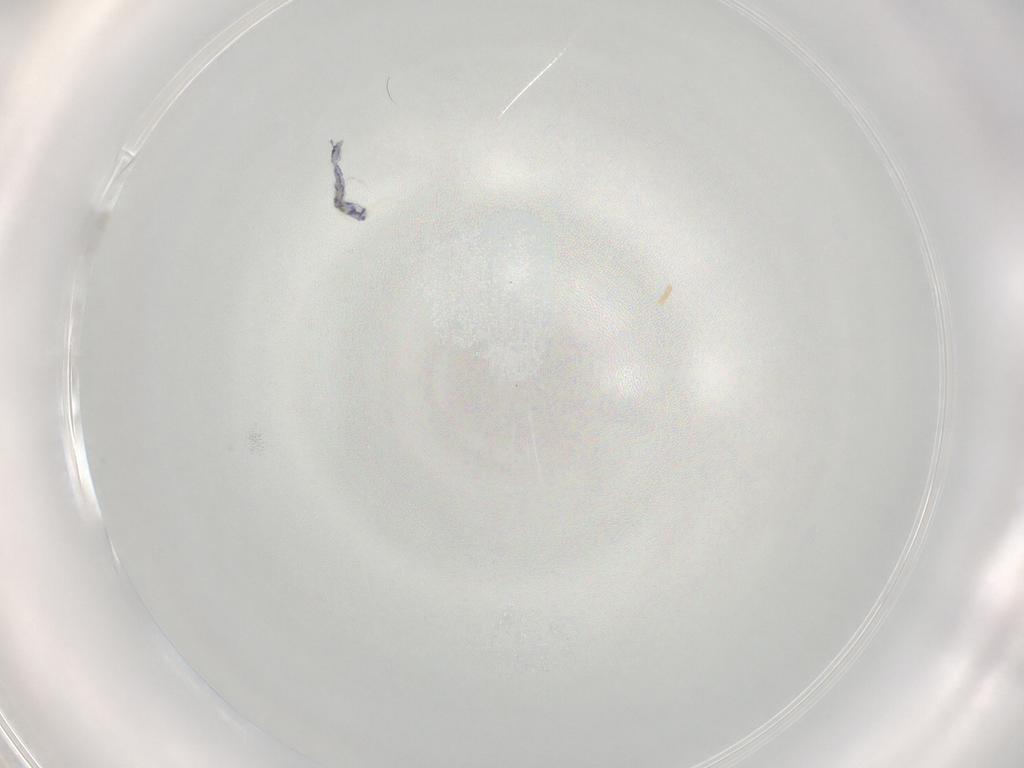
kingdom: Animalia
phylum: Arthropoda
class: Collembola
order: Entomobryomorpha
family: Entomobryidae
